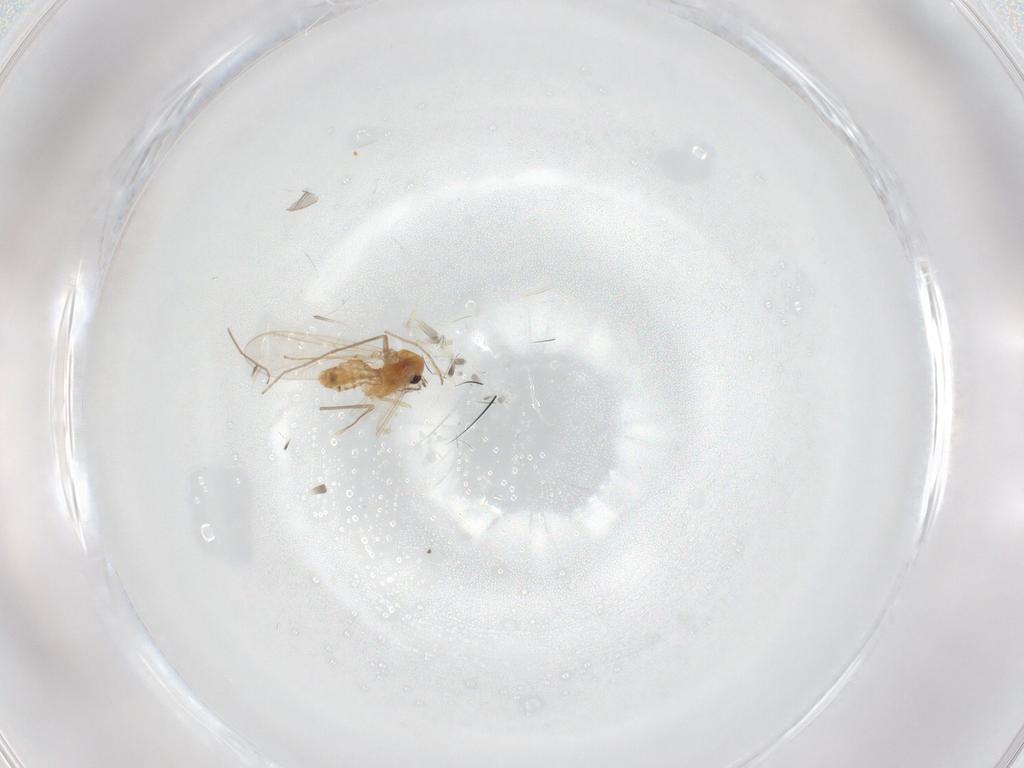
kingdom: Animalia
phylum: Arthropoda
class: Insecta
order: Diptera
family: Chironomidae
